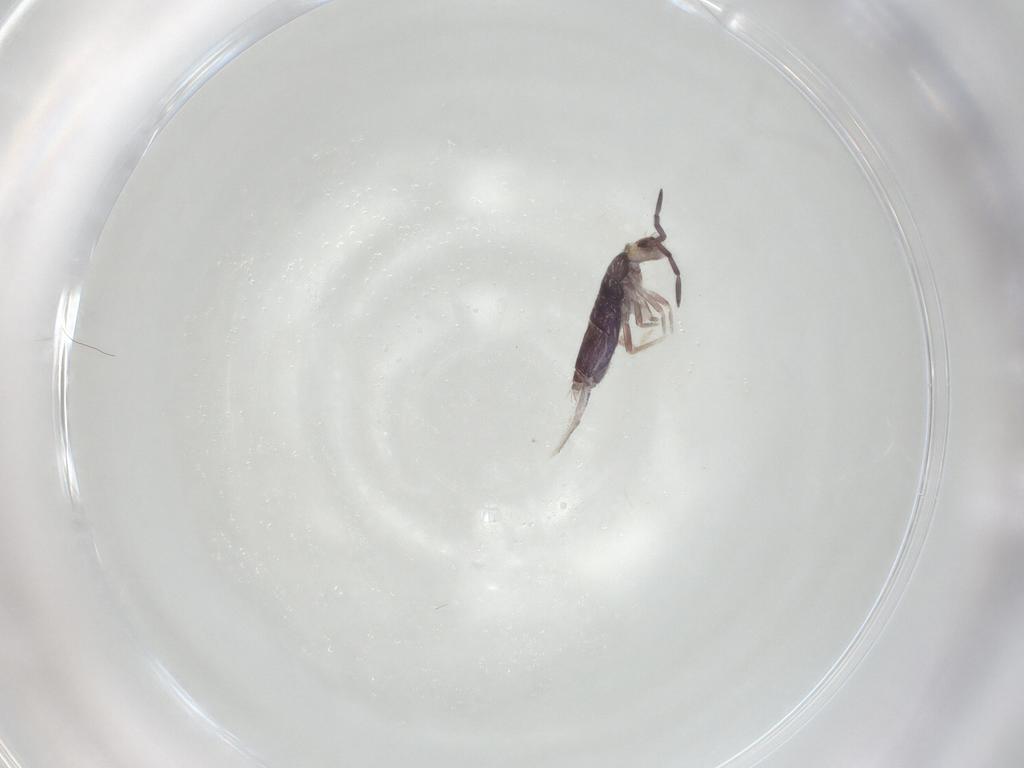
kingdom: Animalia
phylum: Arthropoda
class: Collembola
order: Entomobryomorpha
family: Entomobryidae
